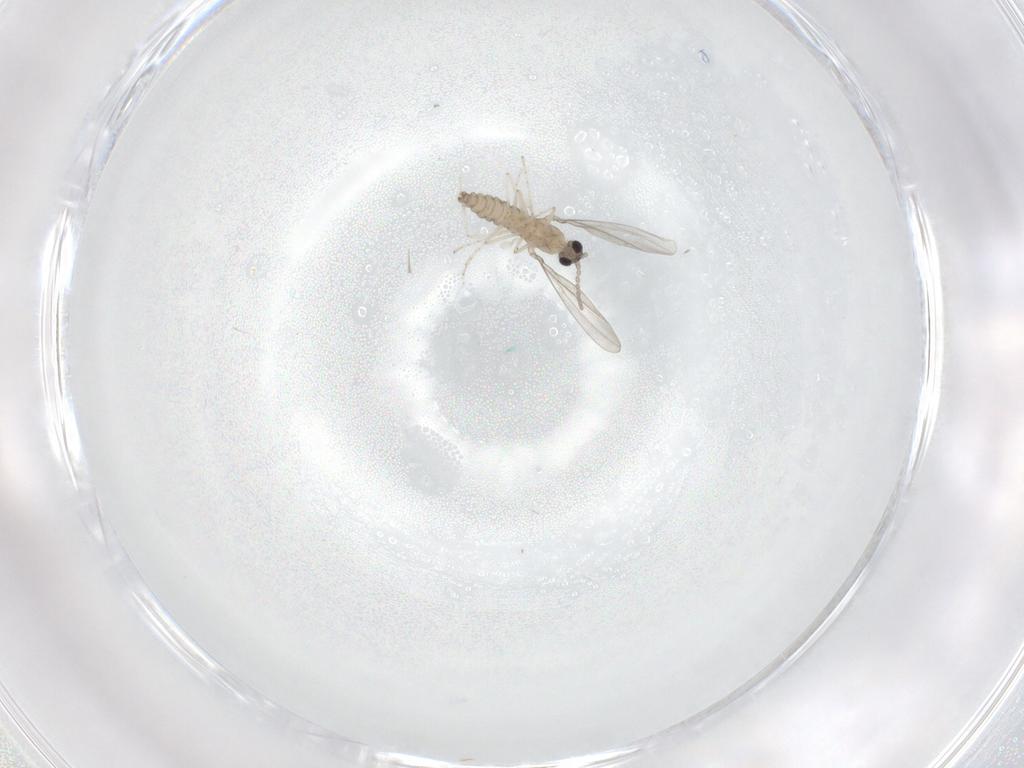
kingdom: Animalia
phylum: Arthropoda
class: Insecta
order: Diptera
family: Cecidomyiidae
